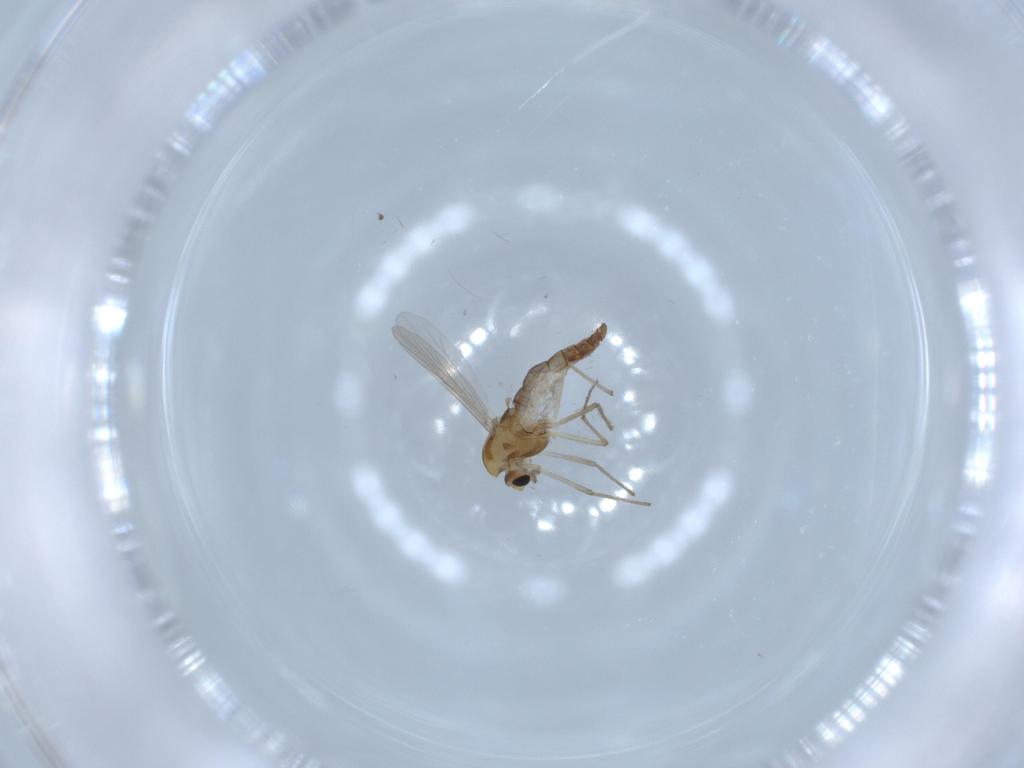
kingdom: Animalia
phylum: Arthropoda
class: Insecta
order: Diptera
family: Chironomidae
